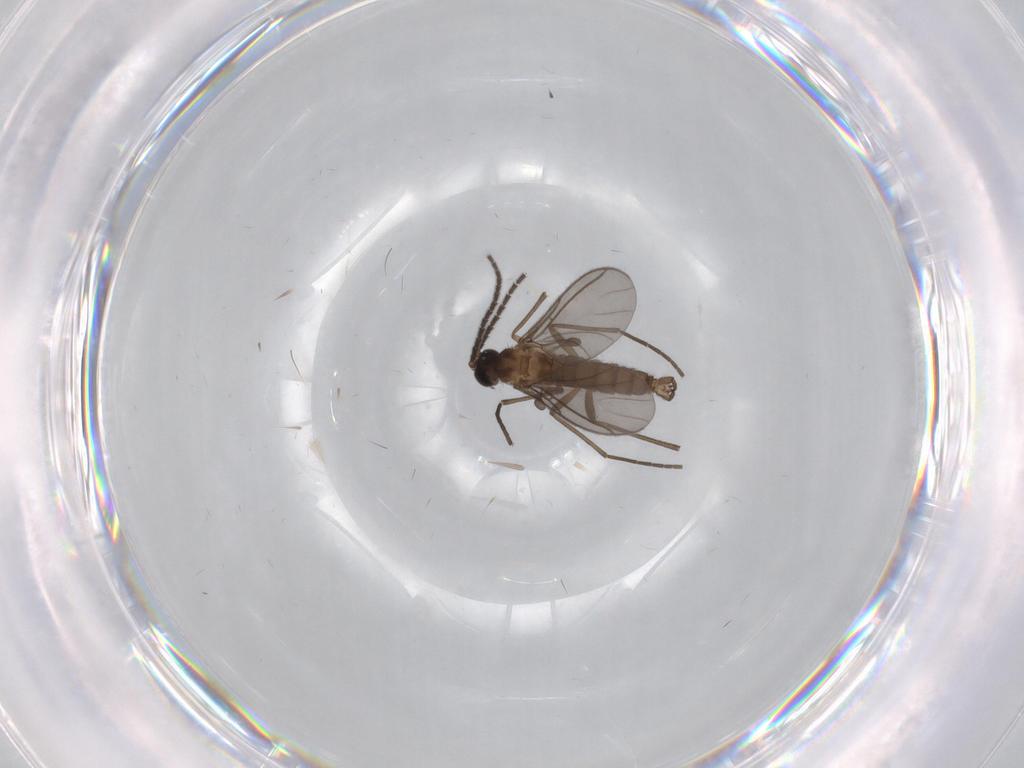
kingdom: Animalia
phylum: Arthropoda
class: Insecta
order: Diptera
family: Sciaridae
